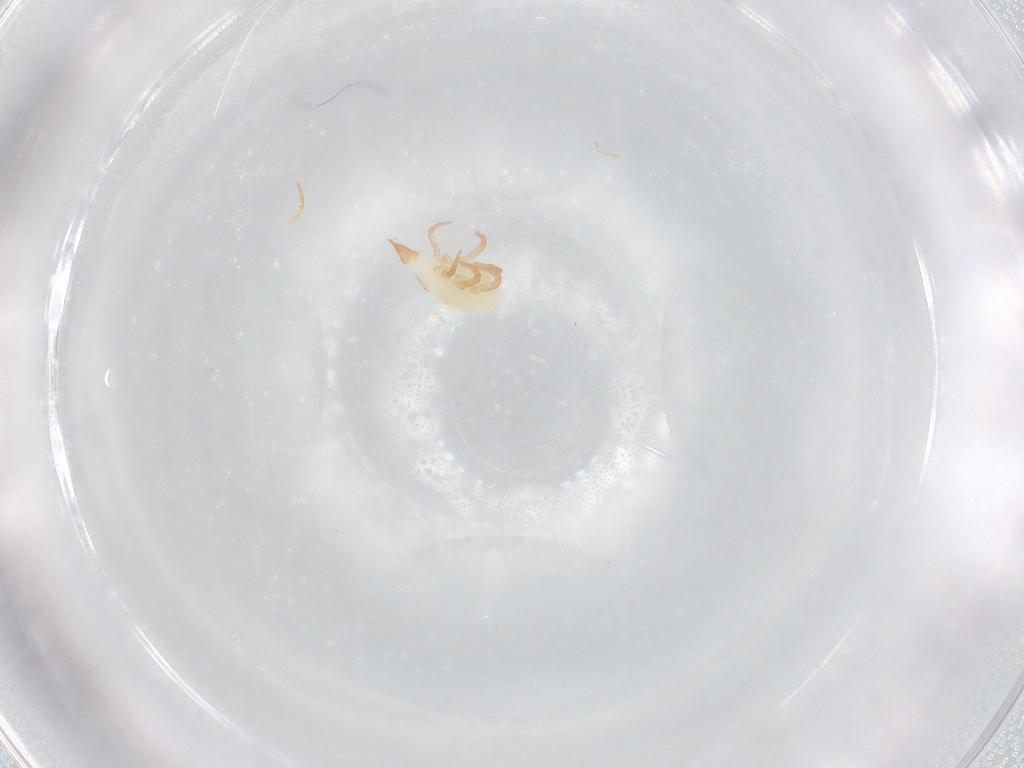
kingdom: Animalia
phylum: Arthropoda
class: Arachnida
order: Trombidiformes
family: Bdellidae
